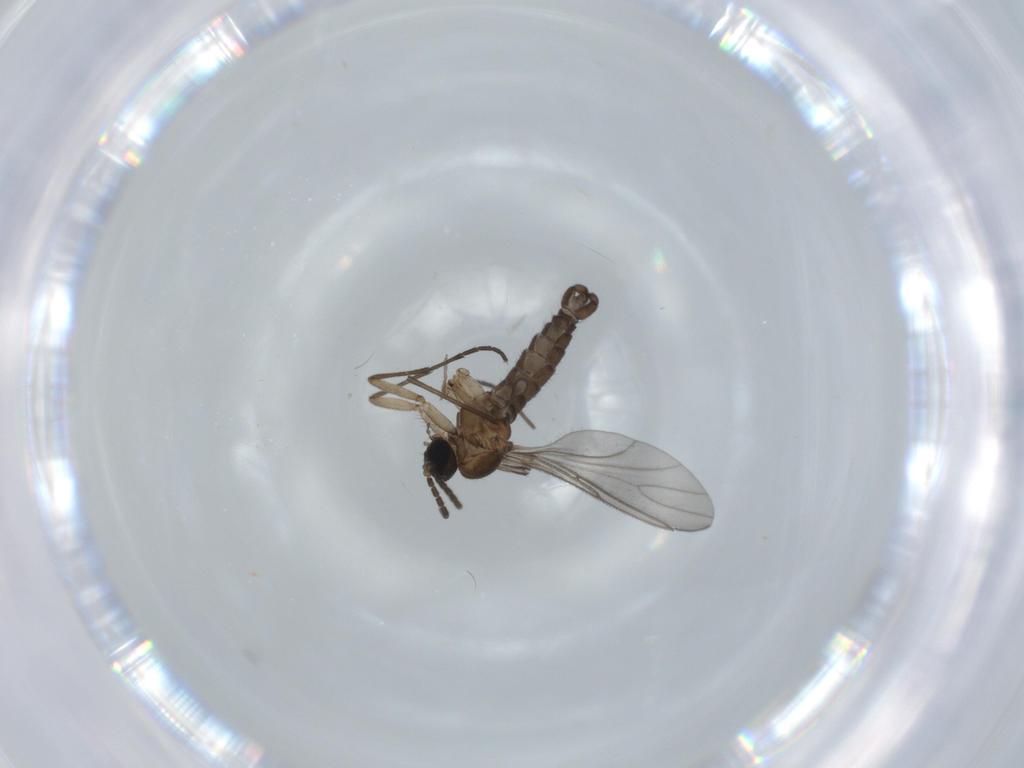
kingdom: Animalia
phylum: Arthropoda
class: Insecta
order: Diptera
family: Sciaridae
